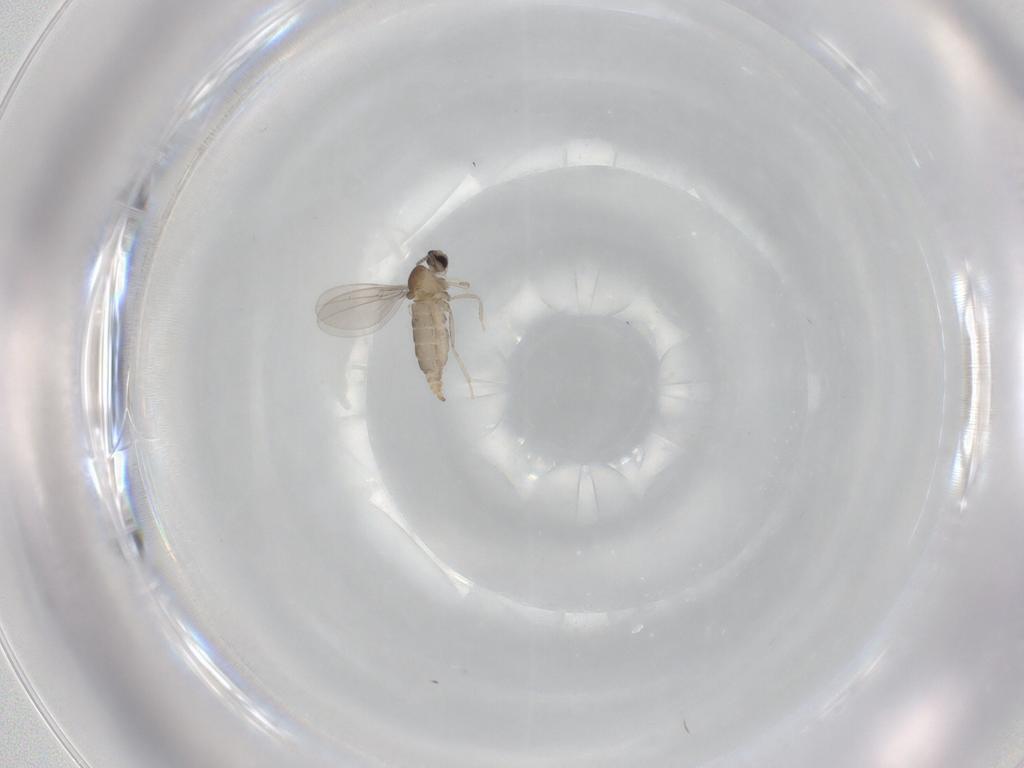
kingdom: Animalia
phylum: Arthropoda
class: Insecta
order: Diptera
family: Cecidomyiidae
